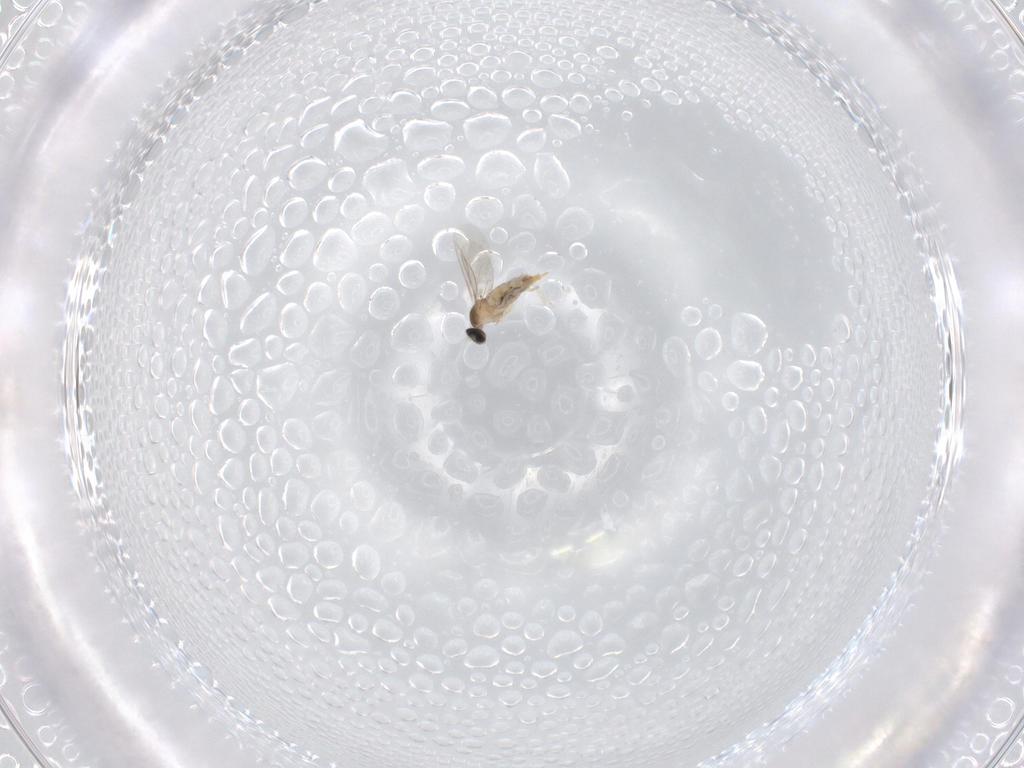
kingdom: Animalia
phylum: Arthropoda
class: Insecta
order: Diptera
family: Cecidomyiidae
